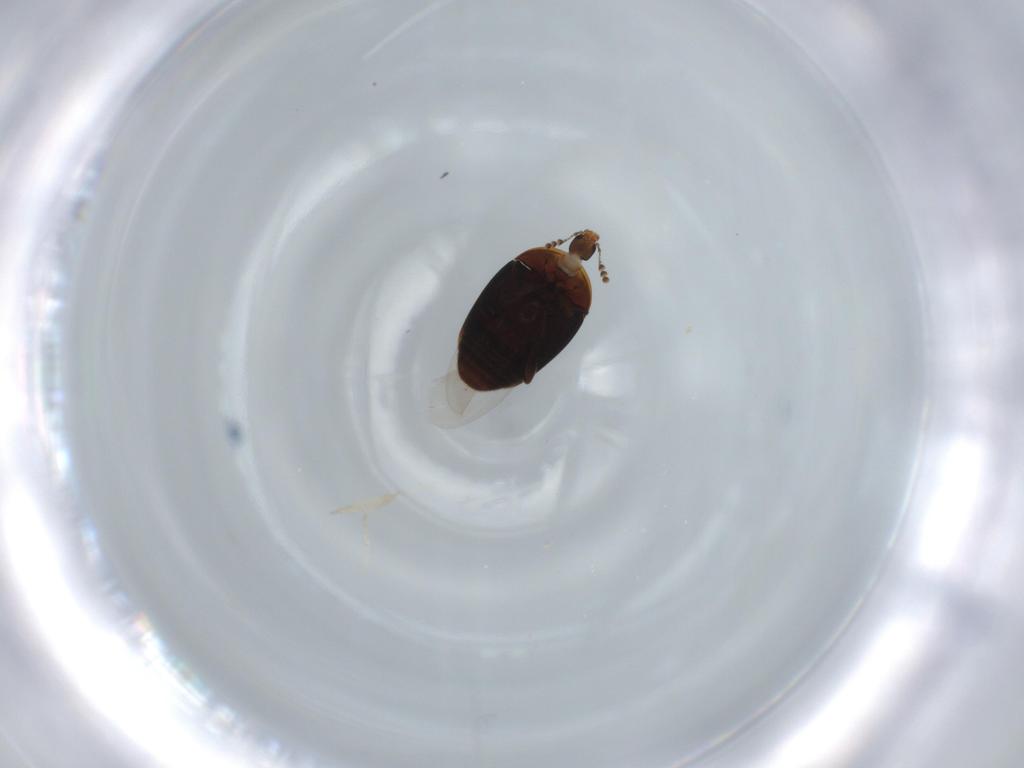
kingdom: Animalia
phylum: Arthropoda
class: Insecta
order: Coleoptera
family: Corylophidae
